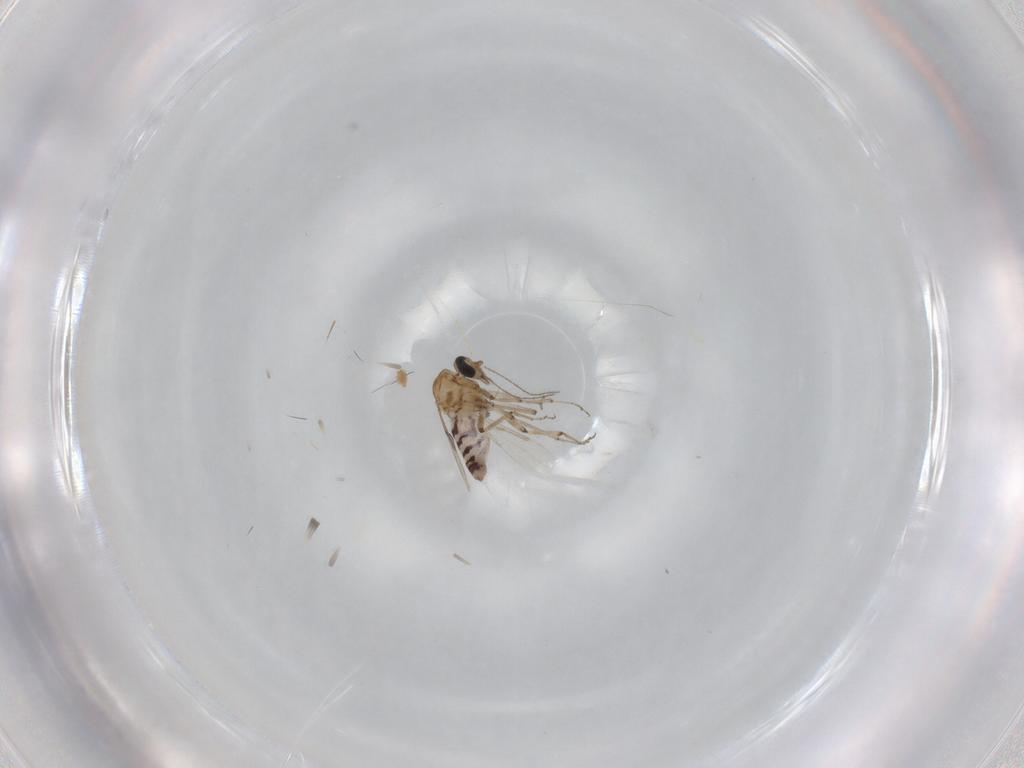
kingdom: Animalia
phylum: Arthropoda
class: Insecta
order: Diptera
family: Ceratopogonidae
